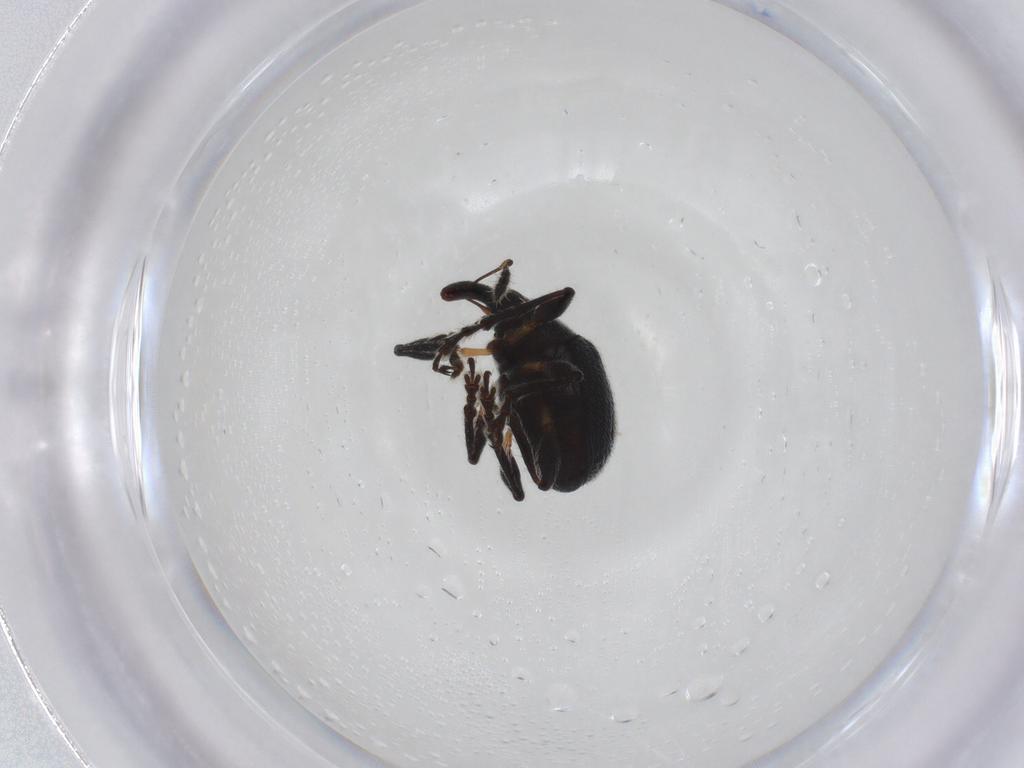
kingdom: Animalia
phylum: Arthropoda
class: Insecta
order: Coleoptera
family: Brentidae
